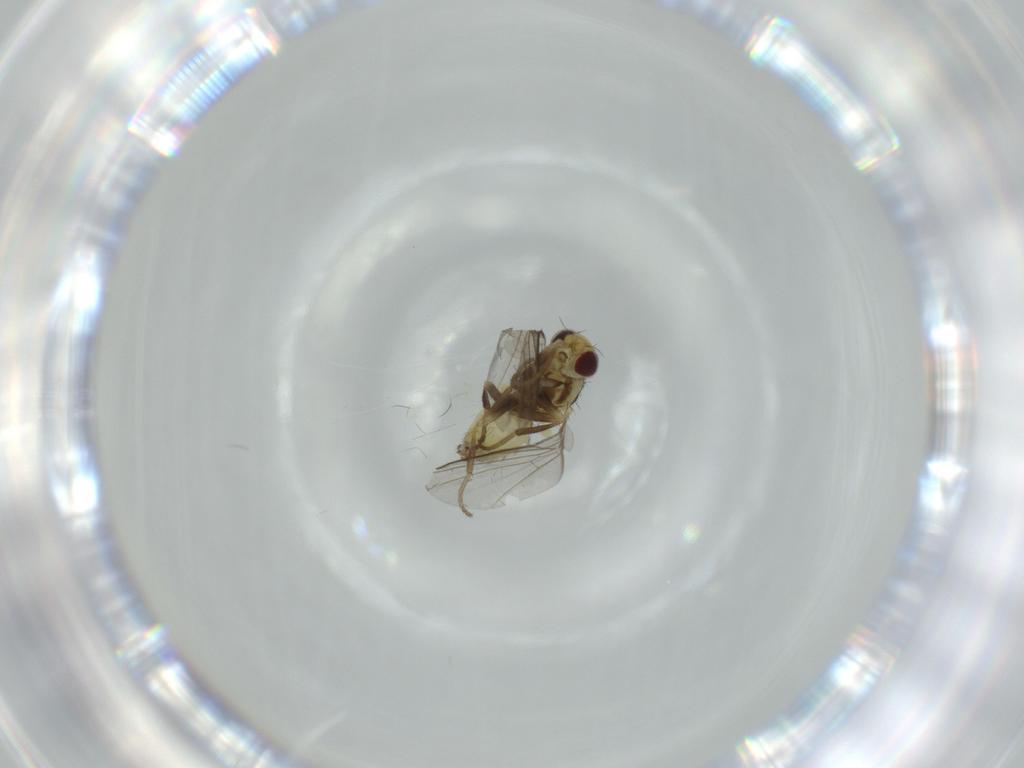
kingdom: Animalia
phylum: Arthropoda
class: Insecta
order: Diptera
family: Agromyzidae
